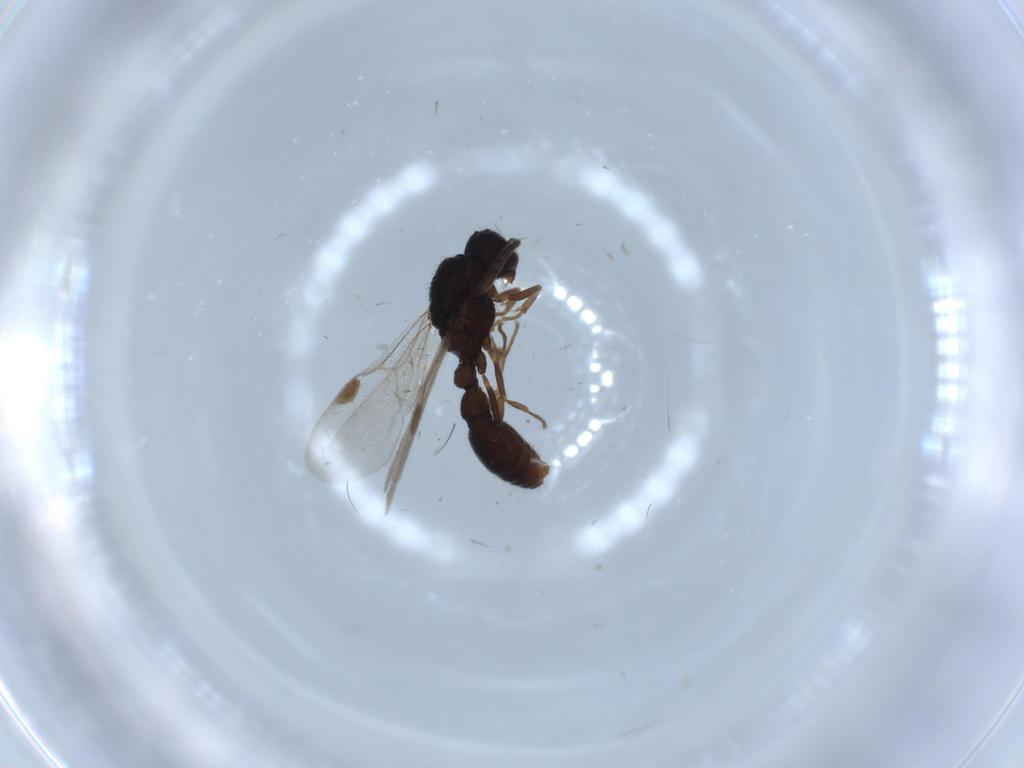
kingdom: Animalia
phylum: Arthropoda
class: Insecta
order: Hymenoptera
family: Formicidae
